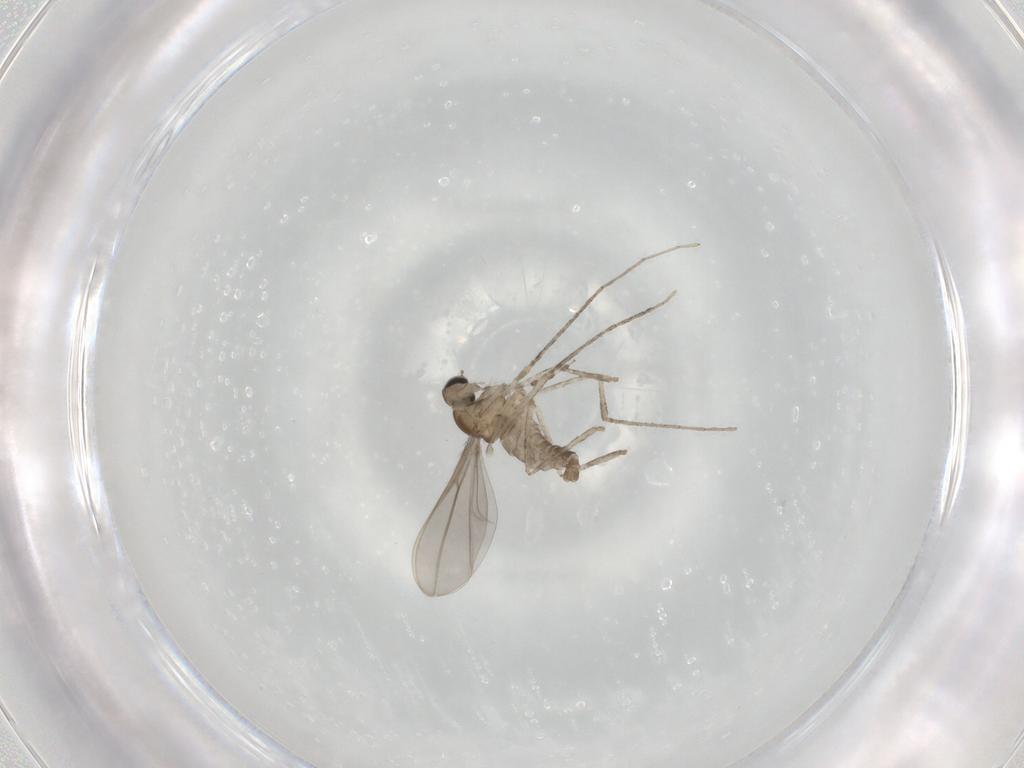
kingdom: Animalia
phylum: Arthropoda
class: Insecta
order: Diptera
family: Cecidomyiidae
